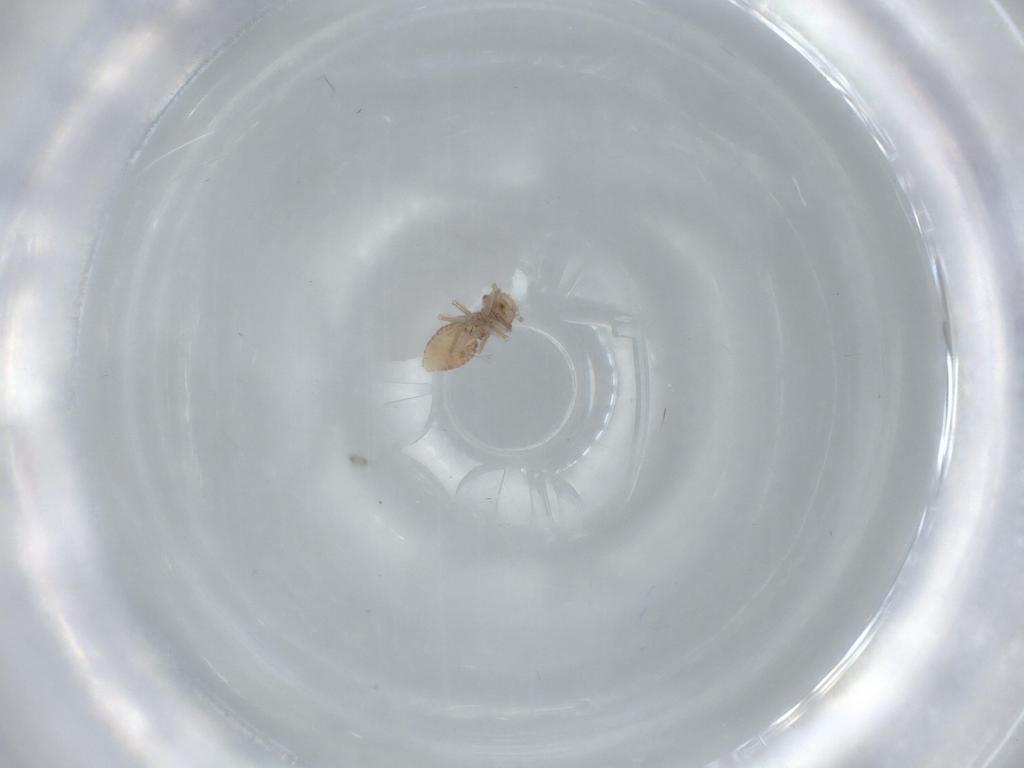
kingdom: Animalia
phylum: Arthropoda
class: Insecta
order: Psocodea
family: Ectopsocidae
